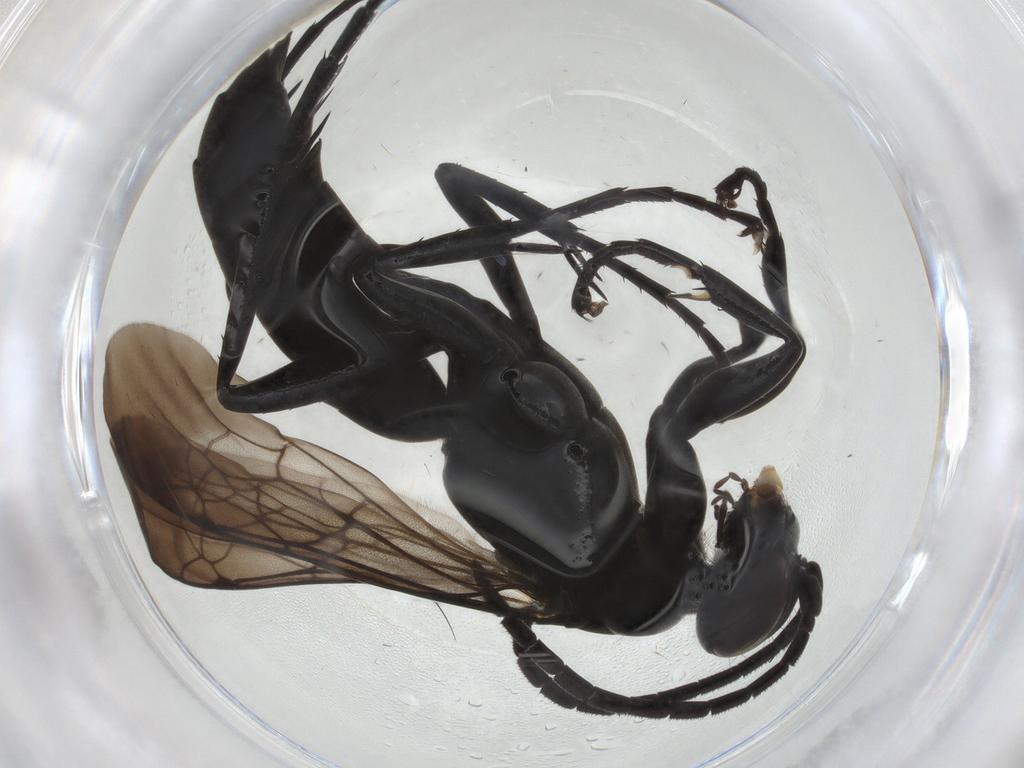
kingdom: Animalia
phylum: Arthropoda
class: Insecta
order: Hymenoptera
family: Pompilidae
